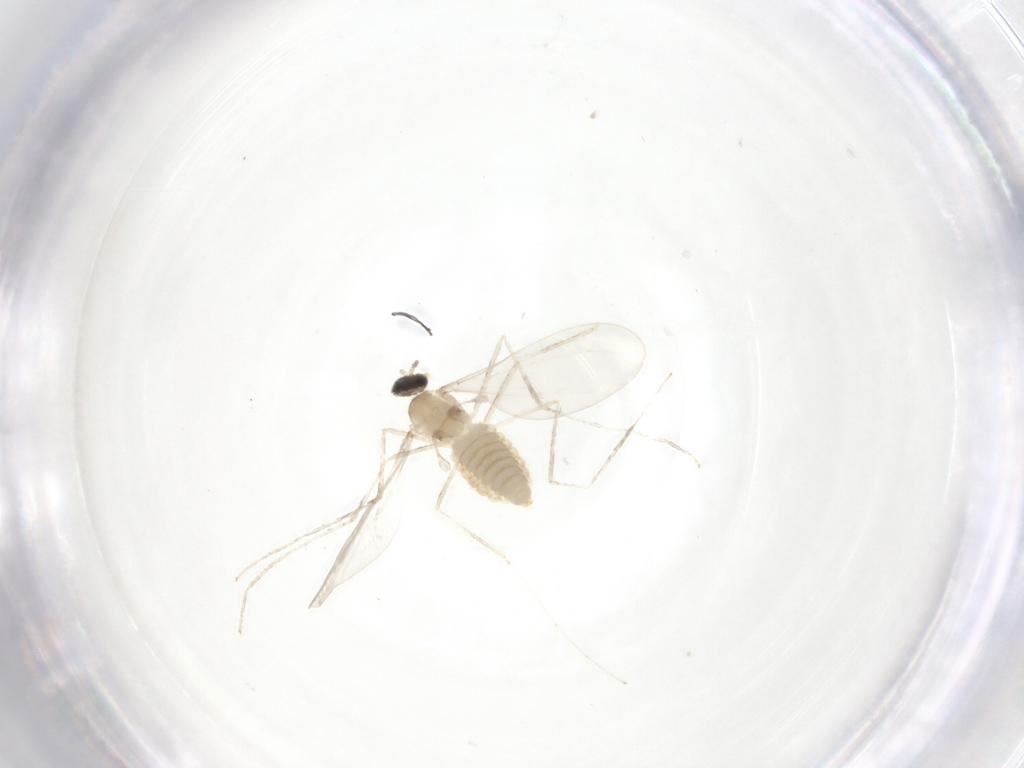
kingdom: Animalia
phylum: Arthropoda
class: Insecta
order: Diptera
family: Cecidomyiidae
